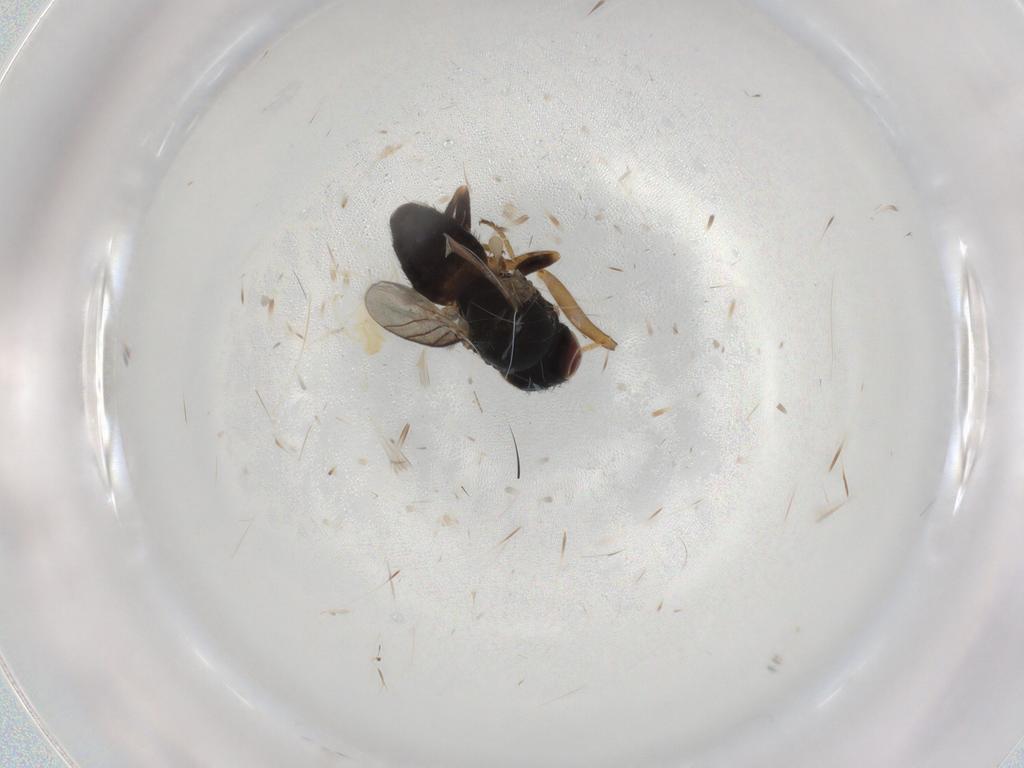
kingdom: Animalia
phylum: Arthropoda
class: Insecta
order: Diptera
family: Chloropidae
